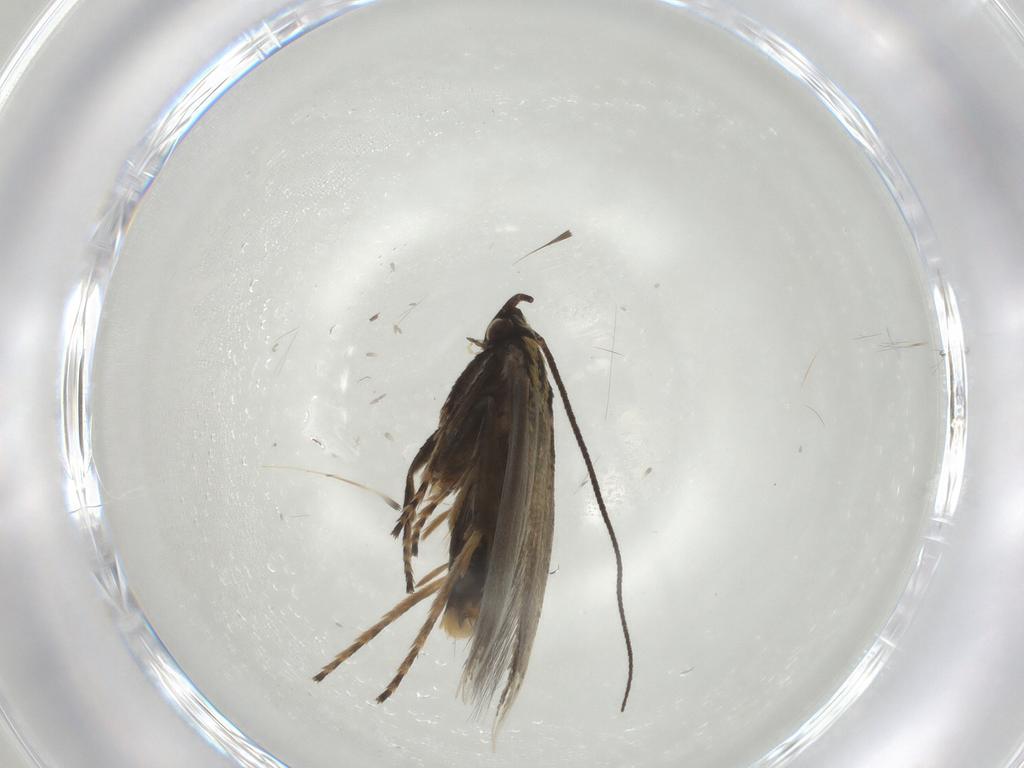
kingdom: Animalia
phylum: Arthropoda
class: Insecta
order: Lepidoptera
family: Tineidae
